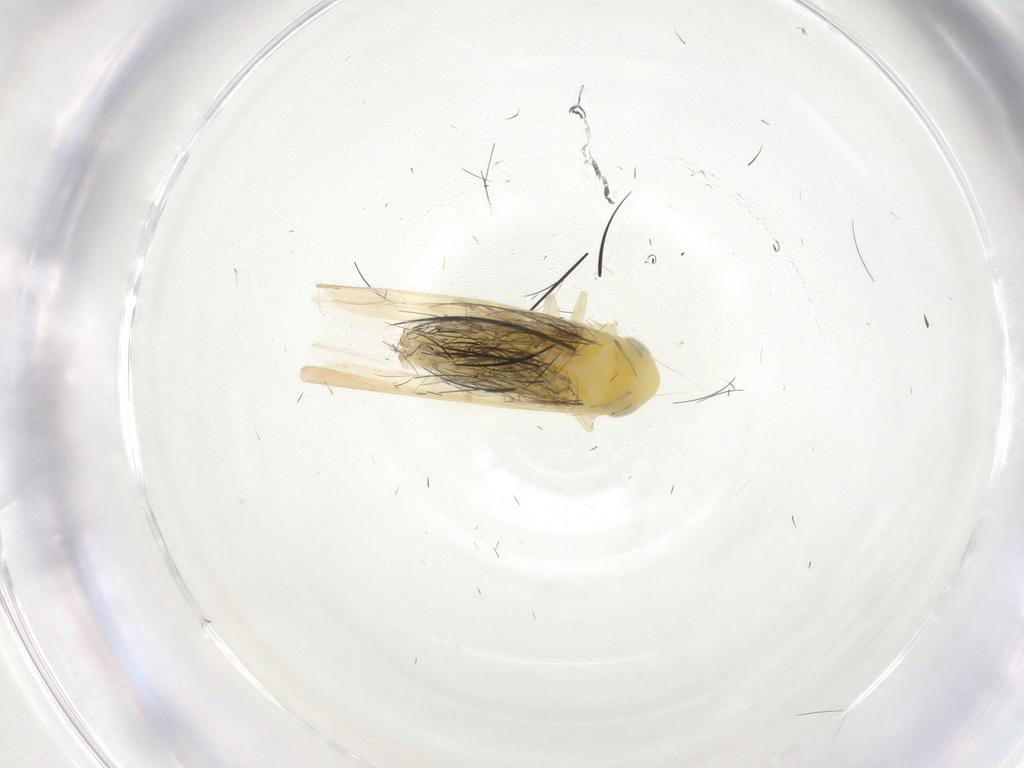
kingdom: Animalia
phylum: Arthropoda
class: Insecta
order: Hemiptera
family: Cicadellidae
